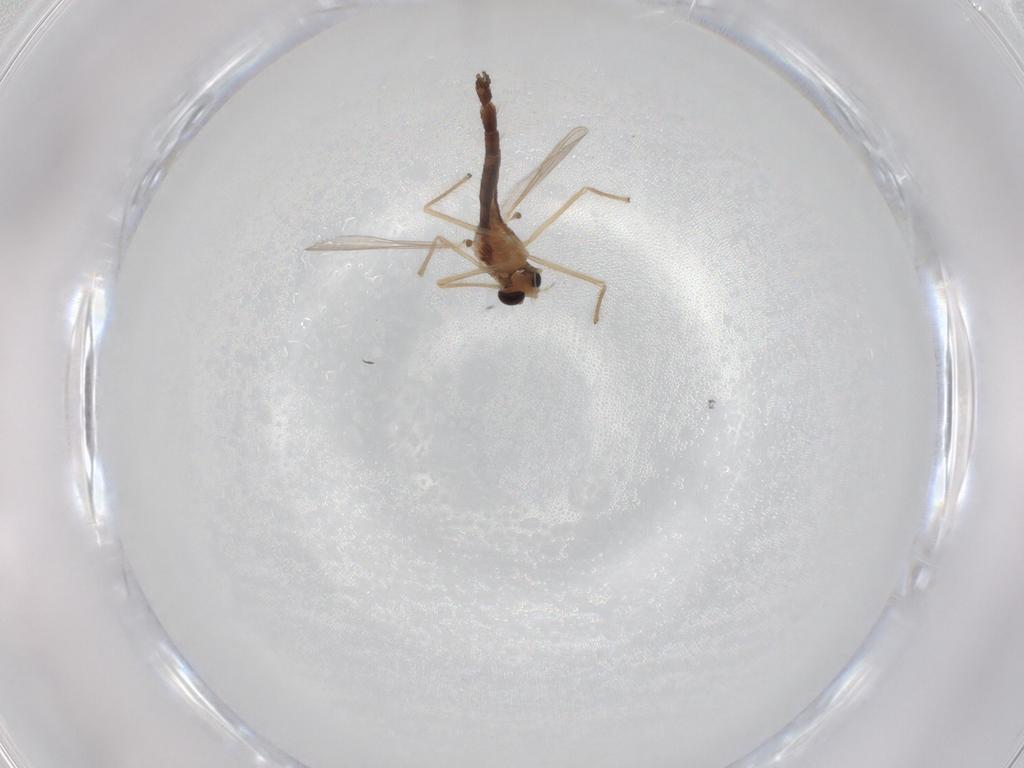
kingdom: Animalia
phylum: Arthropoda
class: Insecta
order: Diptera
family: Chironomidae
